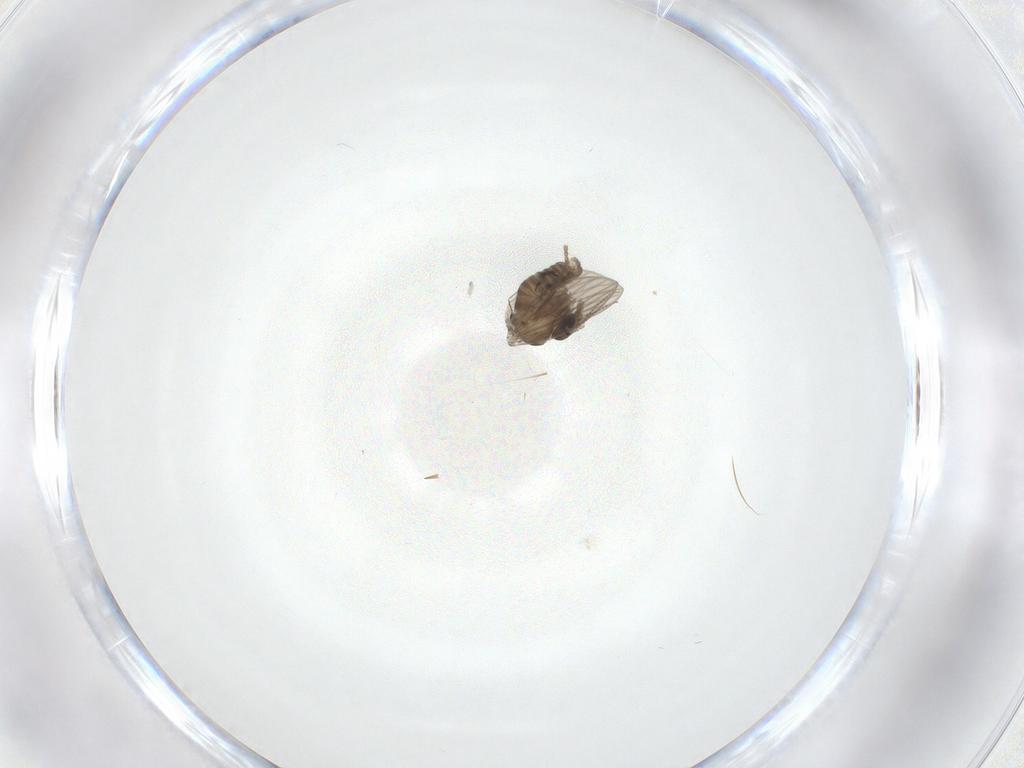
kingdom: Animalia
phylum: Arthropoda
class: Insecta
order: Diptera
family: Psychodidae
